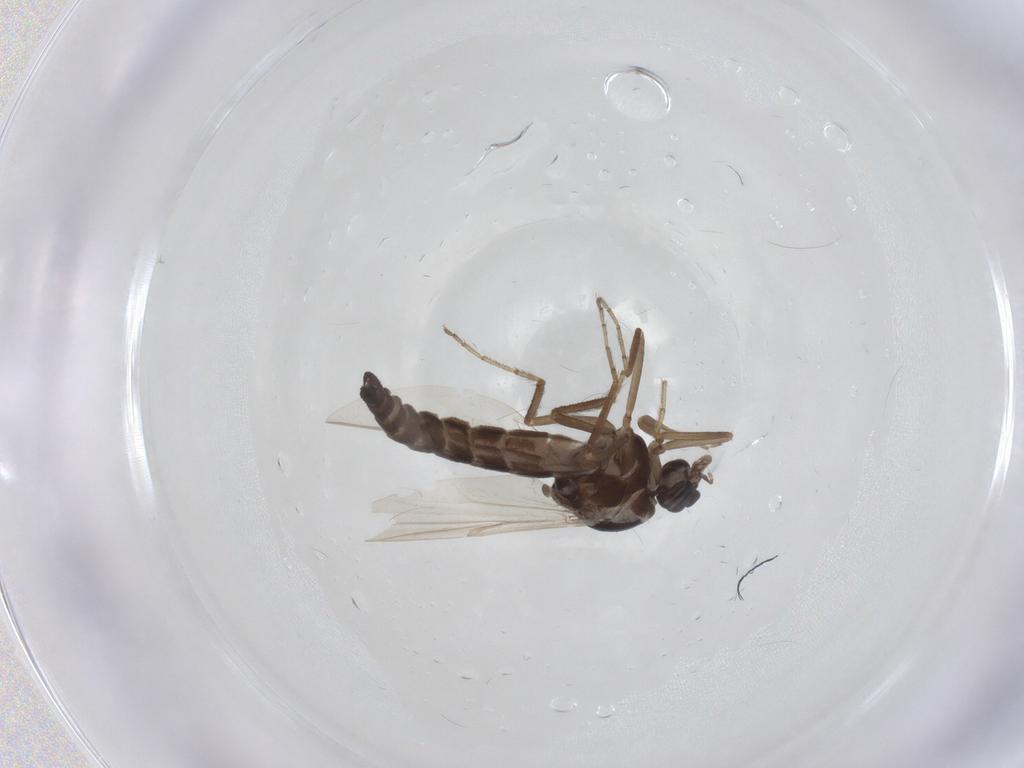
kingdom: Animalia
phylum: Arthropoda
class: Insecta
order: Diptera
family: Ceratopogonidae
